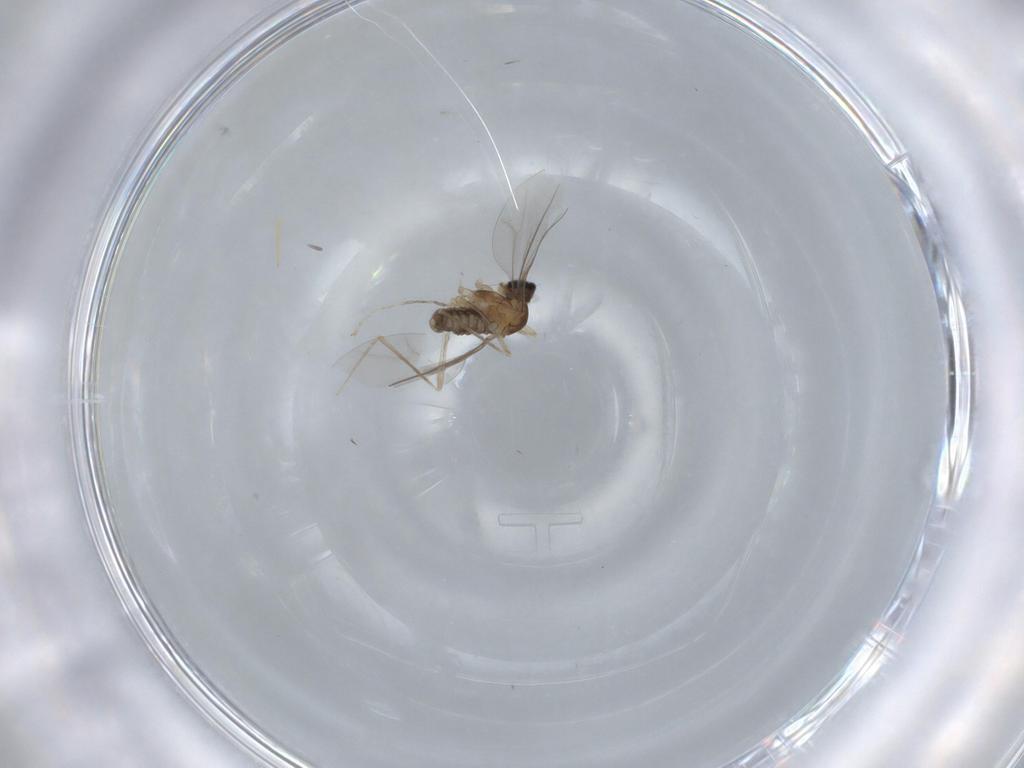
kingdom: Animalia
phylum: Arthropoda
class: Insecta
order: Diptera
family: Cecidomyiidae
